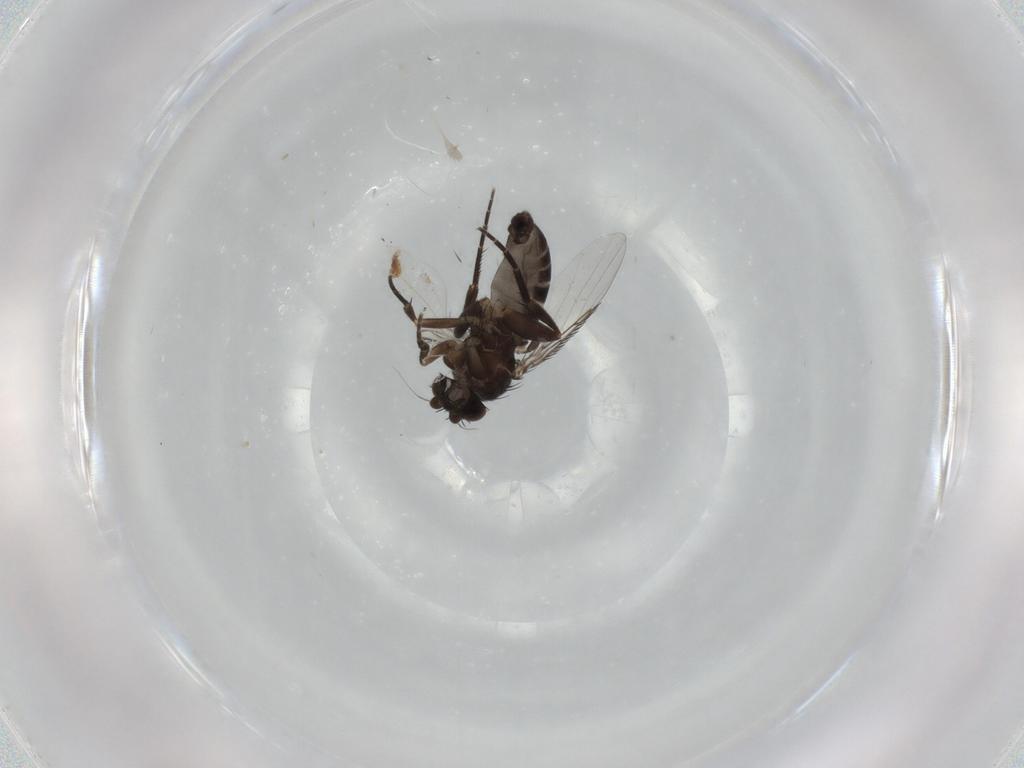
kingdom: Animalia
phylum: Arthropoda
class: Insecta
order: Diptera
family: Phoridae
